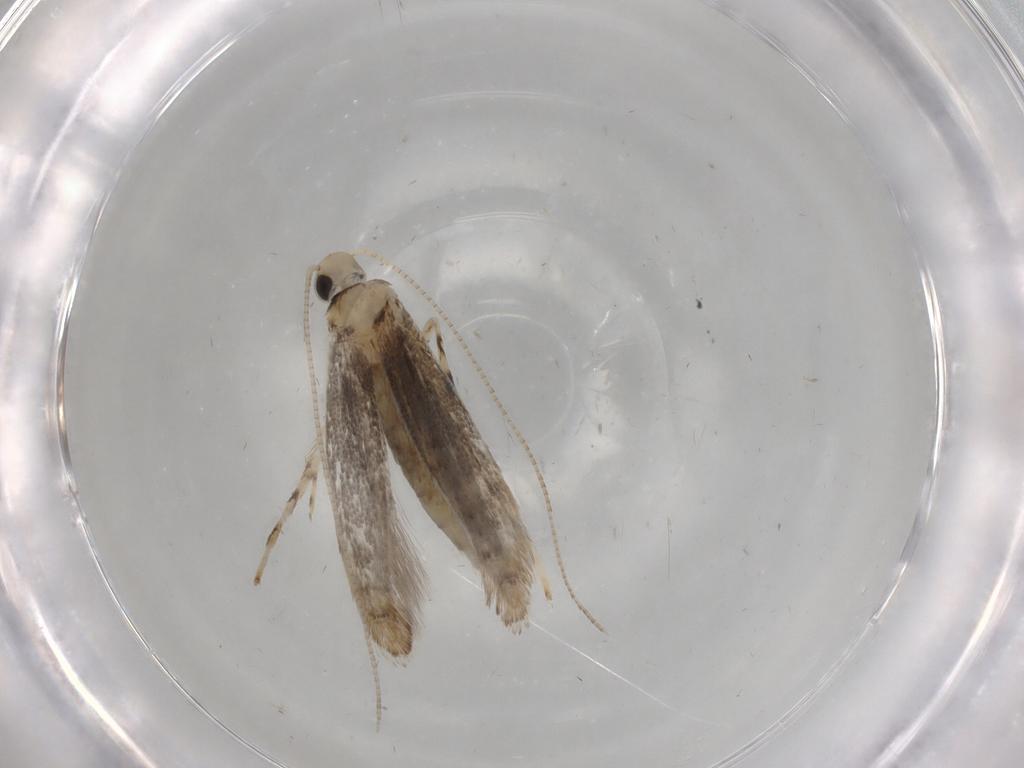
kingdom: Animalia
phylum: Arthropoda
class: Insecta
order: Lepidoptera
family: Gracillariidae
